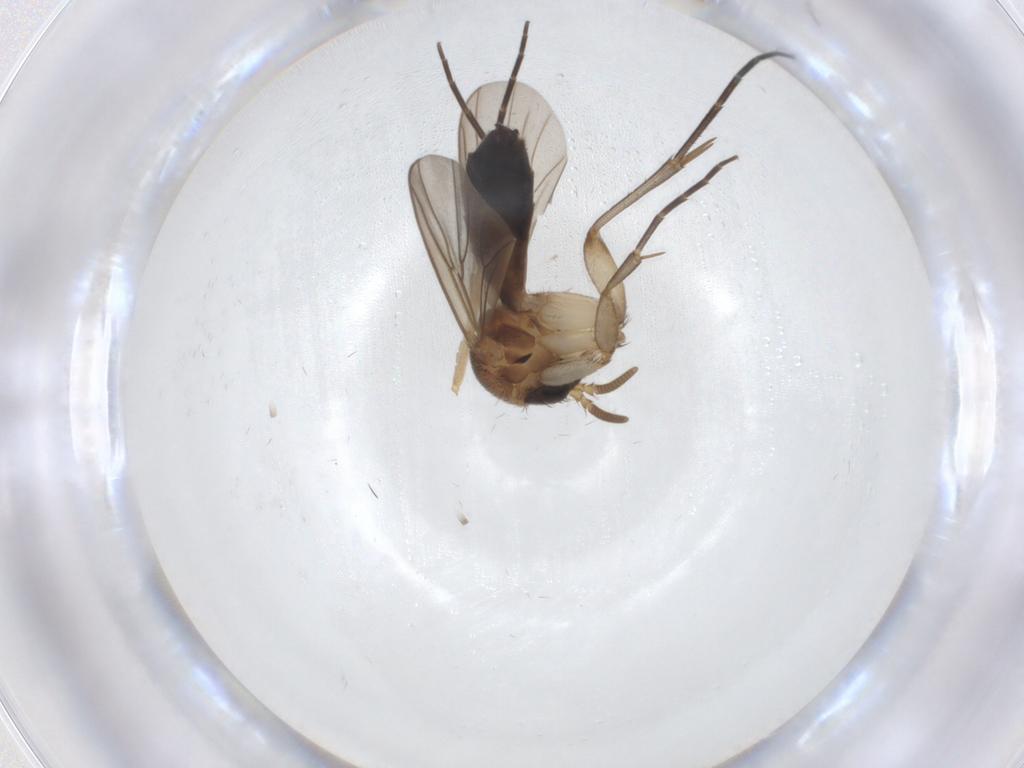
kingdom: Animalia
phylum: Arthropoda
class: Insecta
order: Diptera
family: Mycetophilidae
